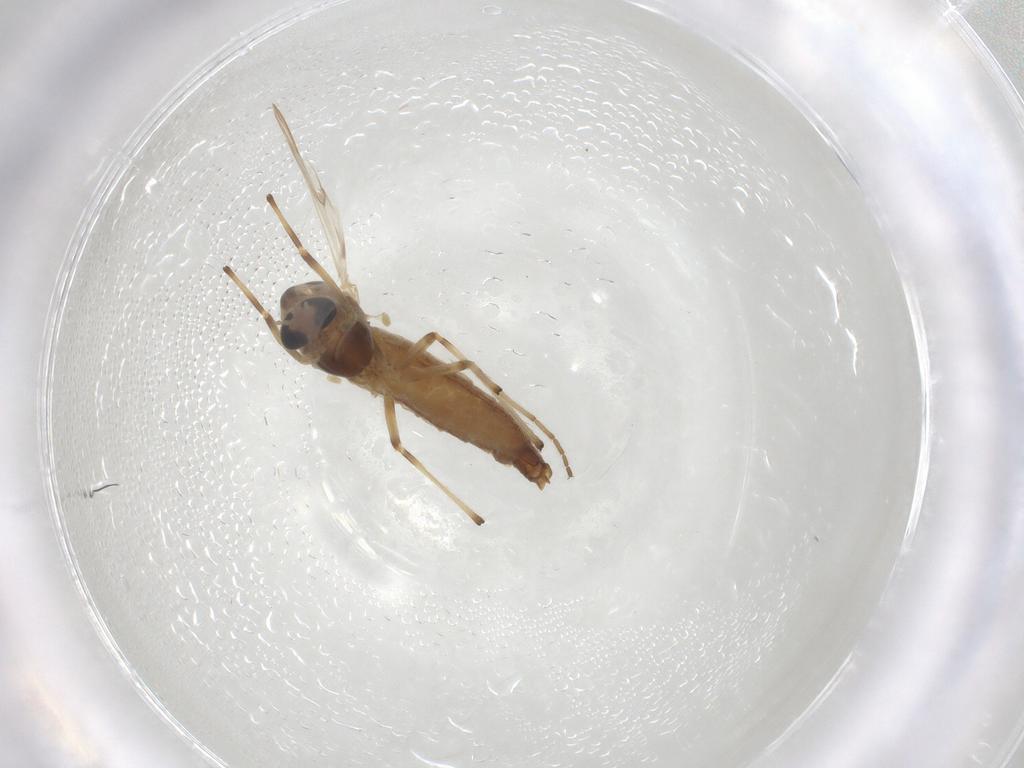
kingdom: Animalia
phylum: Arthropoda
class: Insecta
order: Diptera
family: Chironomidae
